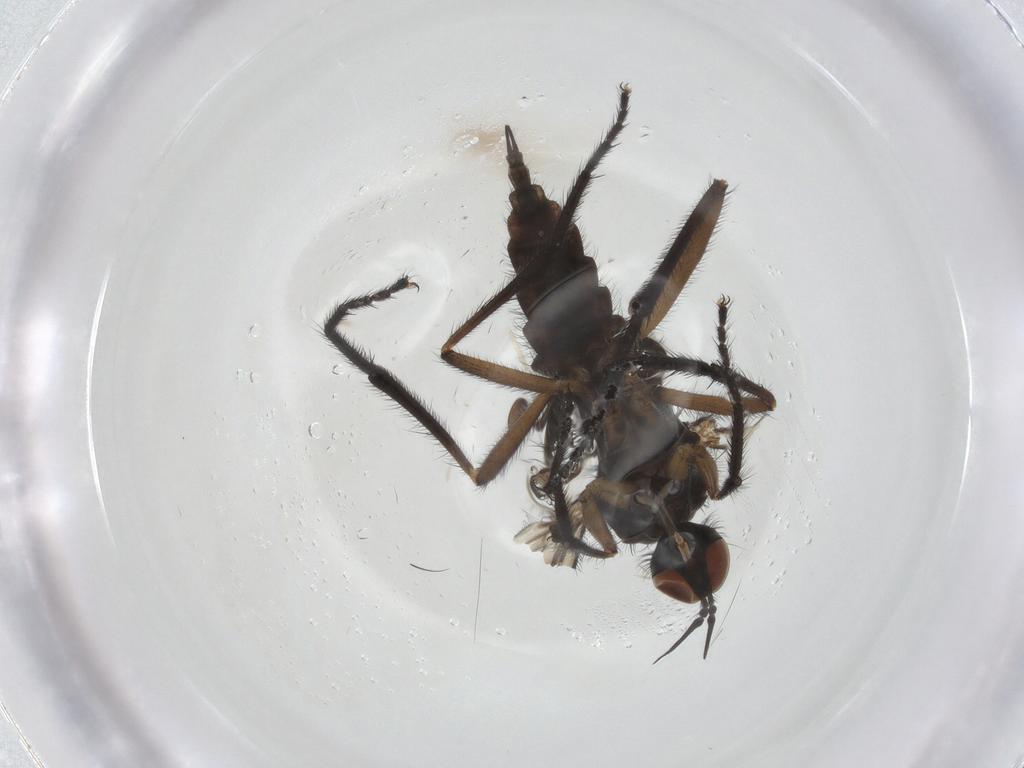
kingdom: Animalia
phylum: Arthropoda
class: Insecta
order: Diptera
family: Empididae
